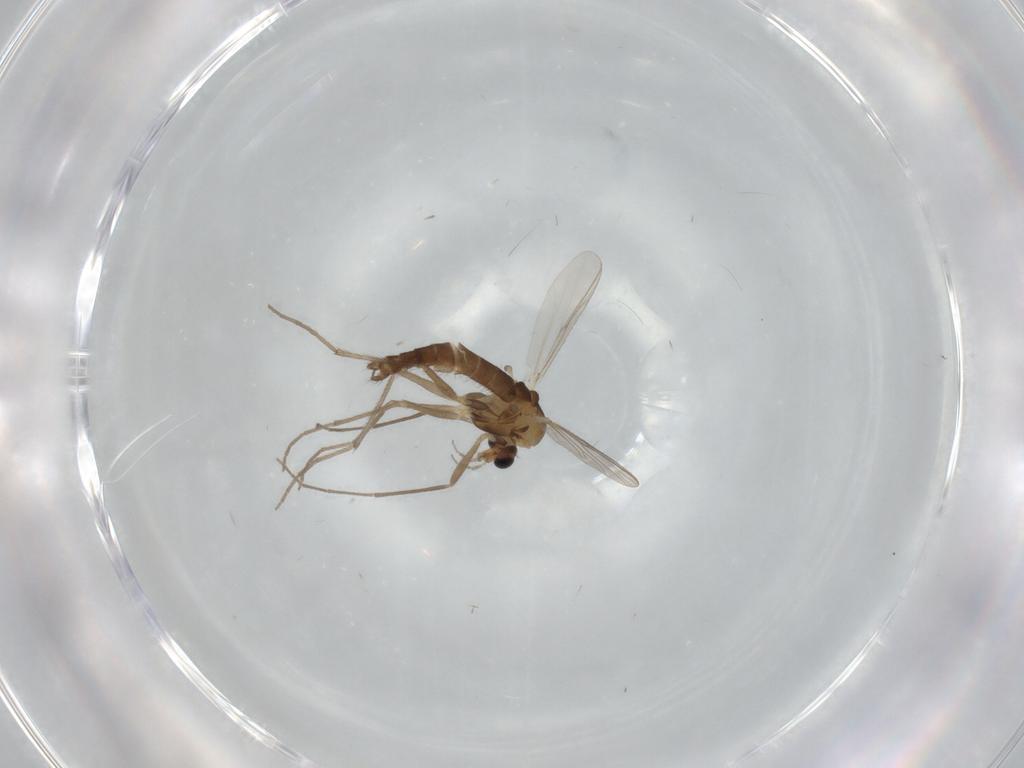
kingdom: Animalia
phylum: Arthropoda
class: Insecta
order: Diptera
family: Chironomidae
